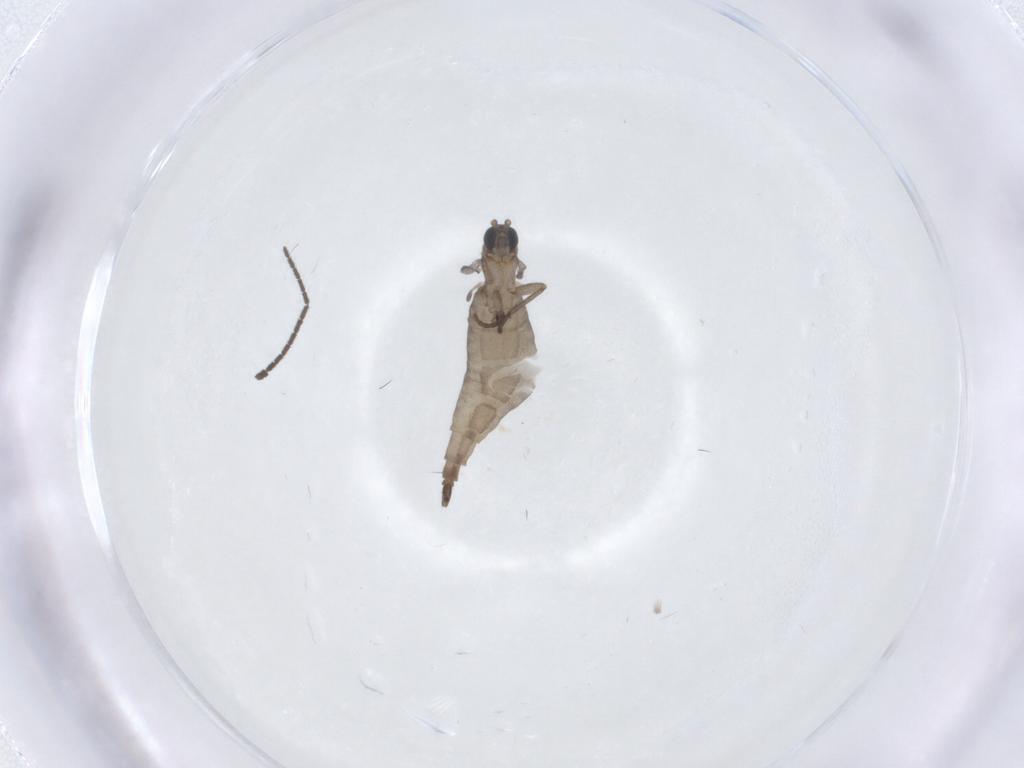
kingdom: Animalia
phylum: Arthropoda
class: Insecta
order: Diptera
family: Sciaridae
